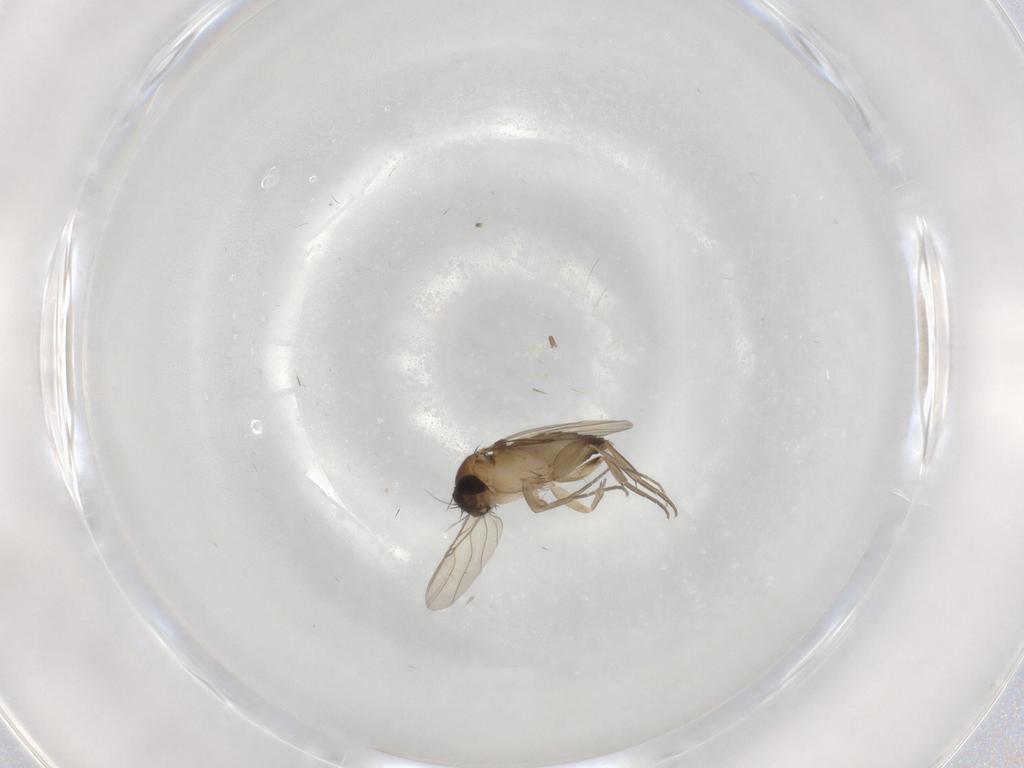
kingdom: Animalia
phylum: Arthropoda
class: Insecta
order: Diptera
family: Phoridae
